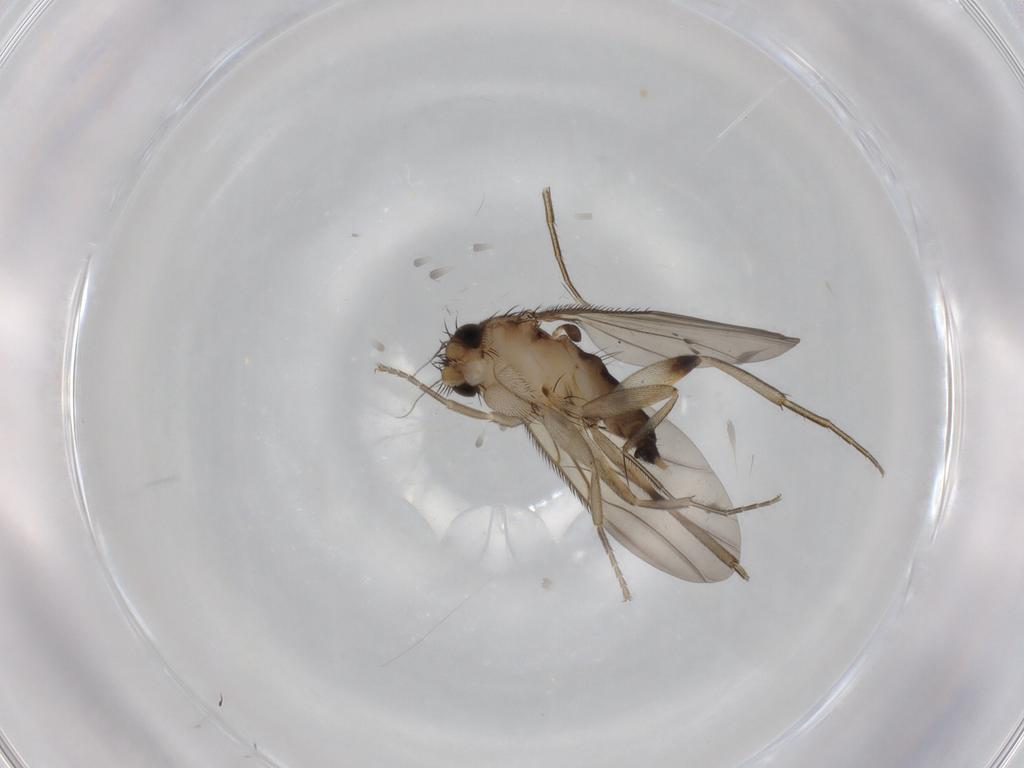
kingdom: Animalia
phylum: Arthropoda
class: Insecta
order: Diptera
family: Phoridae
